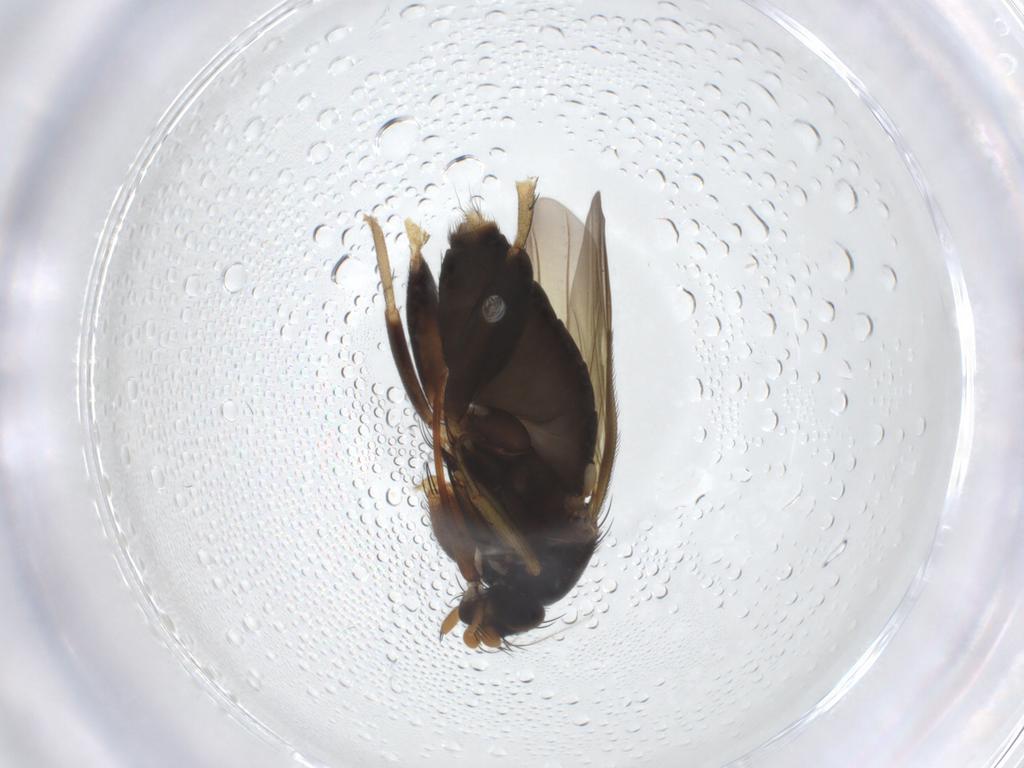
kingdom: Animalia
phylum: Arthropoda
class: Insecta
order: Diptera
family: Phoridae
